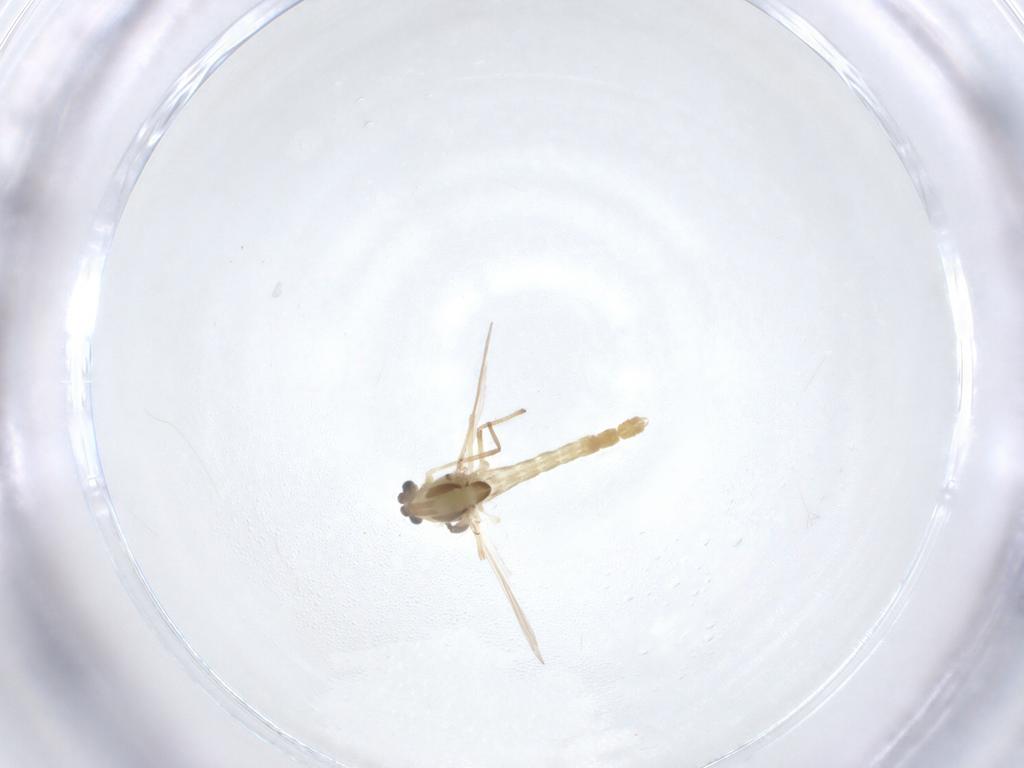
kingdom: Animalia
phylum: Arthropoda
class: Insecta
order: Diptera
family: Chironomidae
